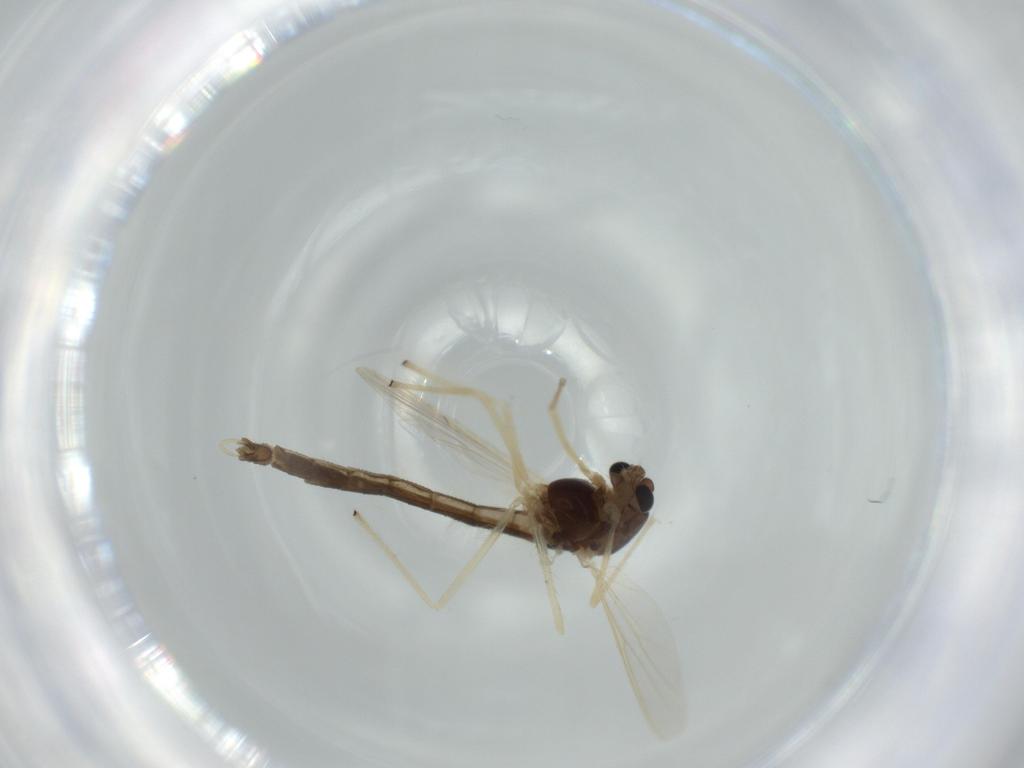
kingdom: Animalia
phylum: Arthropoda
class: Insecta
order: Diptera
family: Chironomidae
